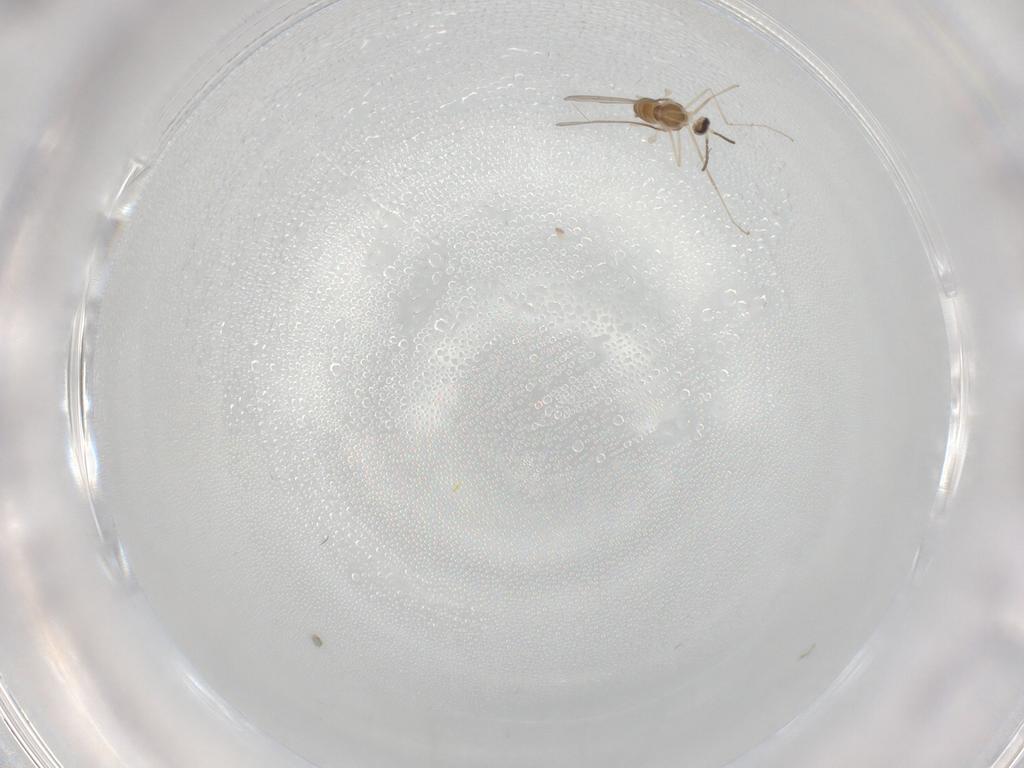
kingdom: Animalia
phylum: Arthropoda
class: Insecta
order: Diptera
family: Cecidomyiidae
